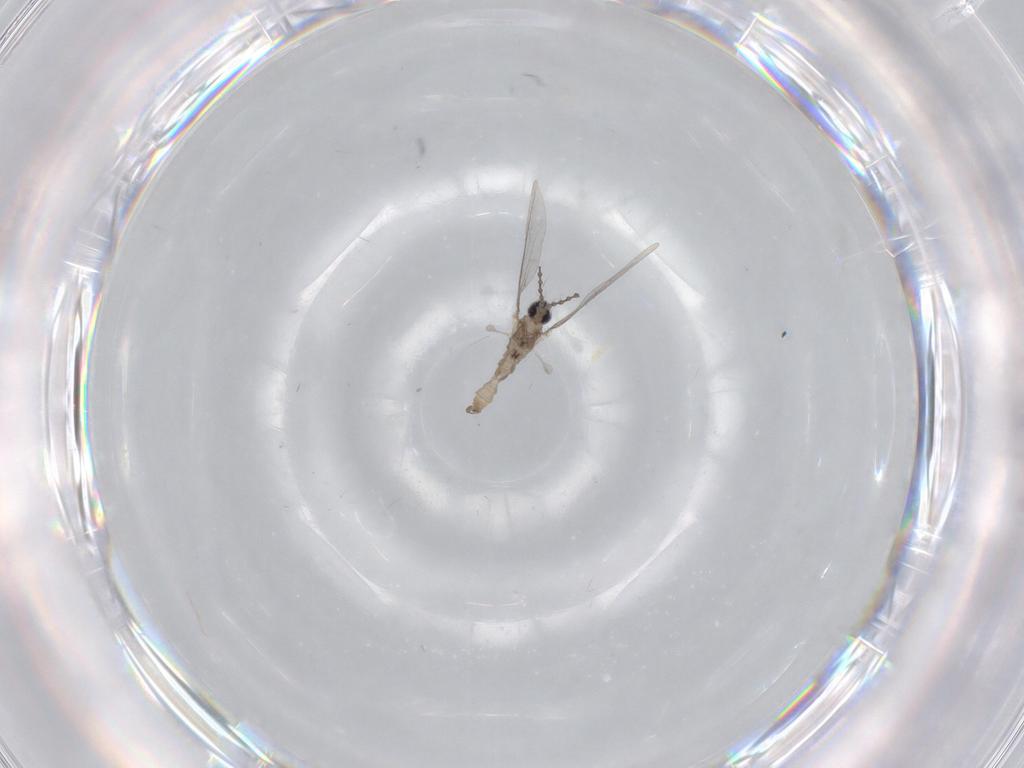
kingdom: Animalia
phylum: Arthropoda
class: Insecta
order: Diptera
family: Cecidomyiidae
